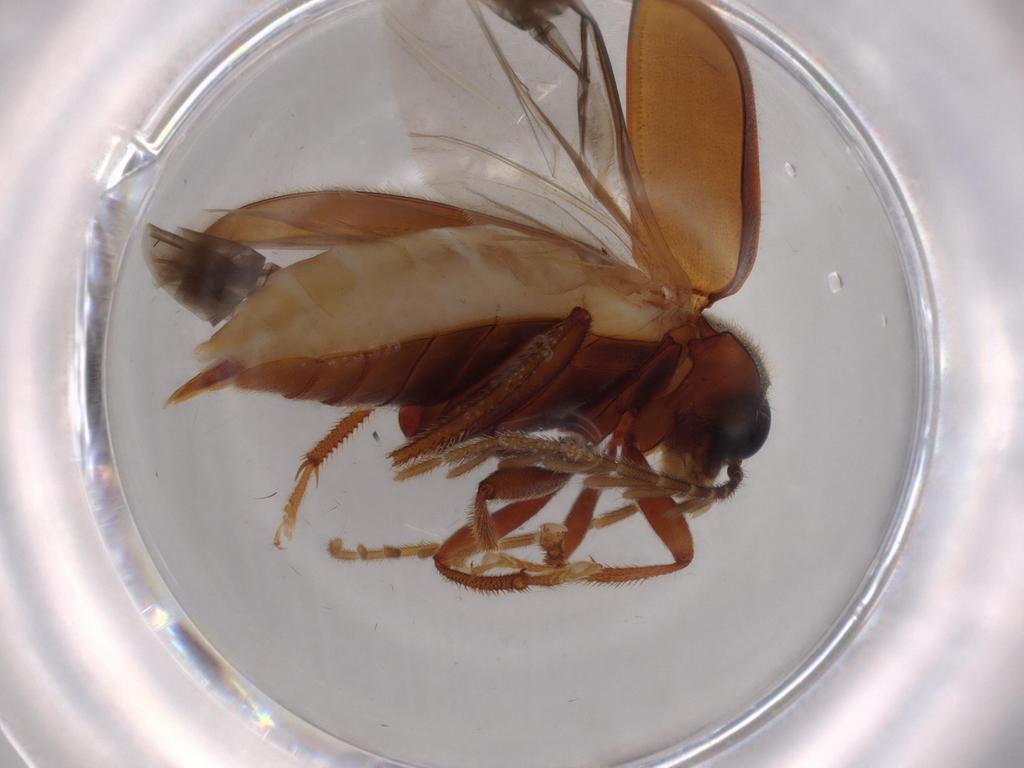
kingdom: Animalia
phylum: Arthropoda
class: Insecta
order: Coleoptera
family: Ptilodactylidae
